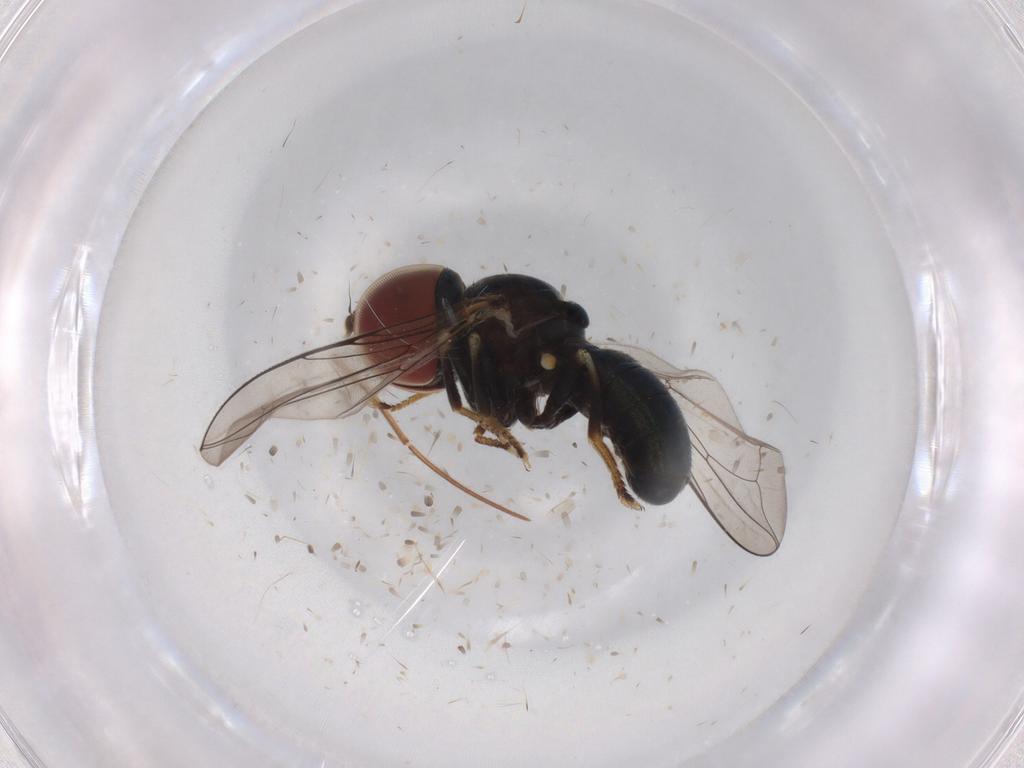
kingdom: Animalia
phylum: Arthropoda
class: Insecta
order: Diptera
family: Pipunculidae
